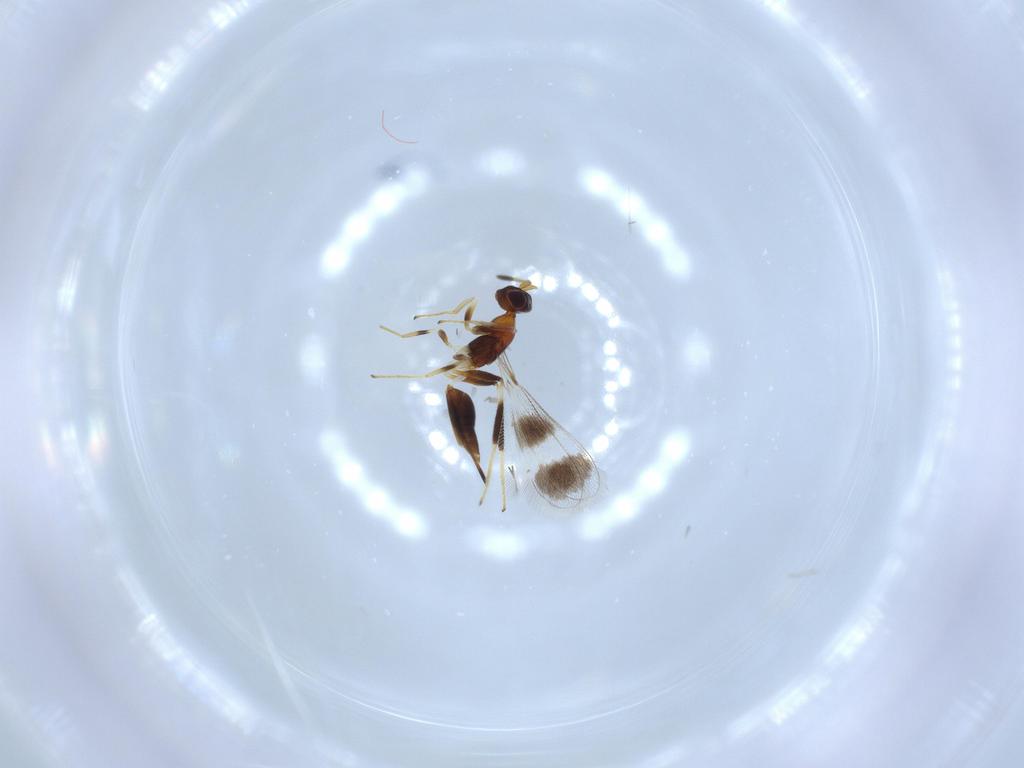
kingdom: Animalia
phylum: Arthropoda
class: Insecta
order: Hymenoptera
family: Mymaridae
